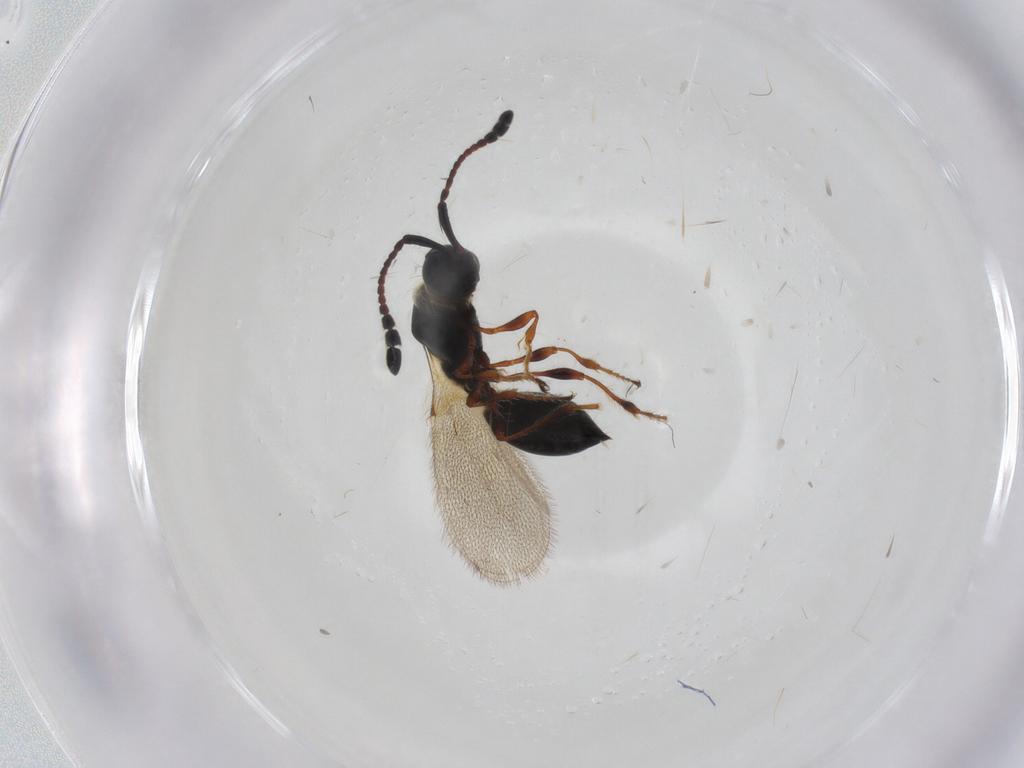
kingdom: Animalia
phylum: Arthropoda
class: Insecta
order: Hymenoptera
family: Diapriidae
